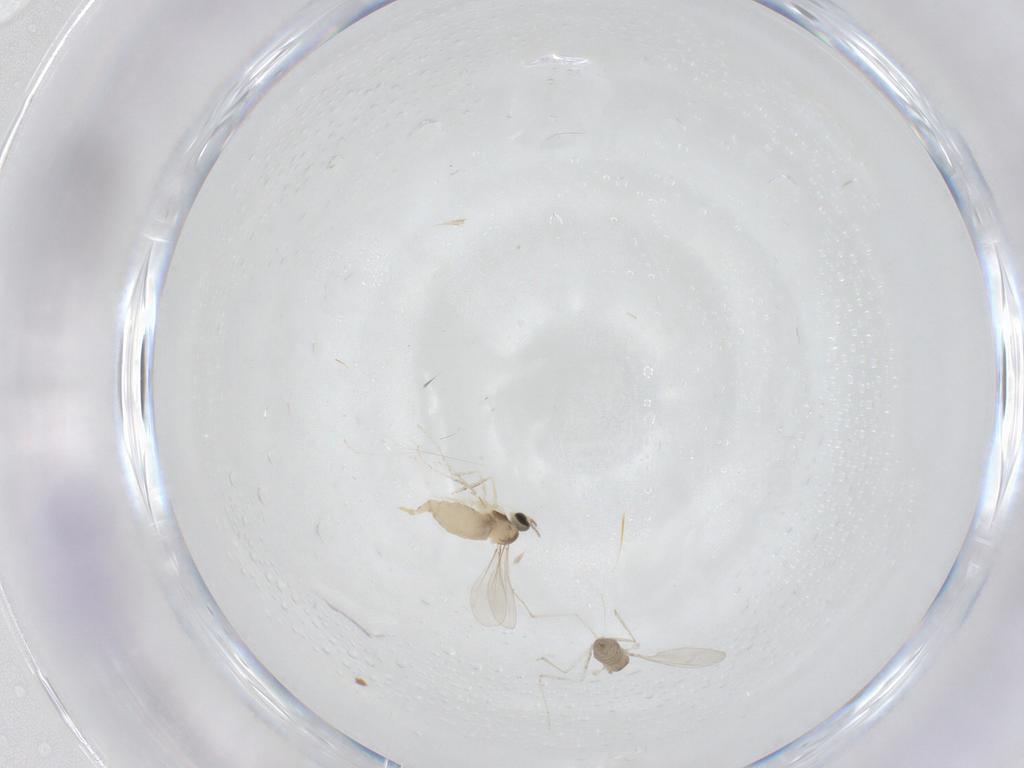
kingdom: Animalia
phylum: Arthropoda
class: Insecta
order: Diptera
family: Cecidomyiidae
